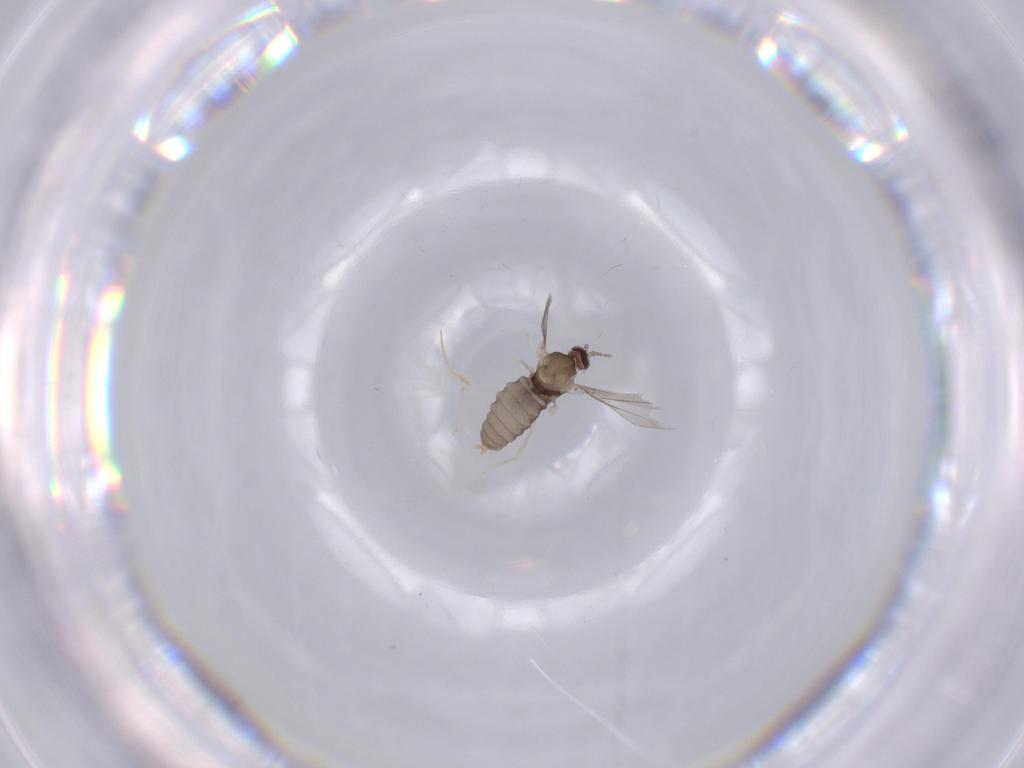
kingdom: Animalia
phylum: Arthropoda
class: Insecta
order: Diptera
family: Cecidomyiidae
